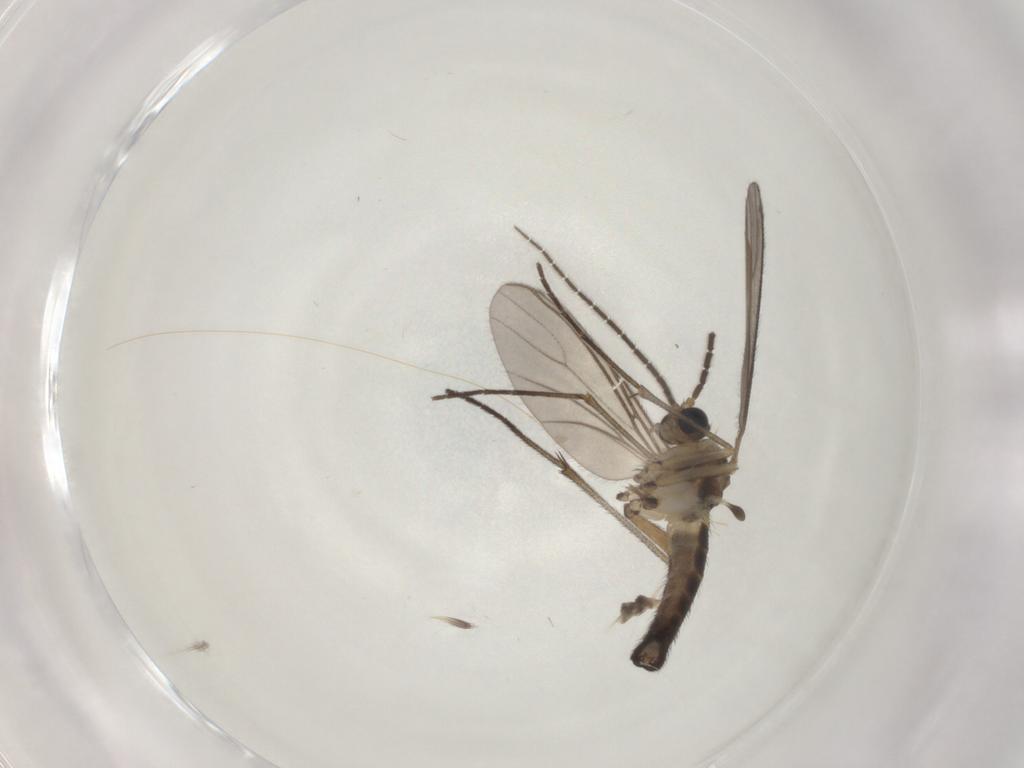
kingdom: Animalia
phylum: Arthropoda
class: Insecta
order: Diptera
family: Sciaridae
